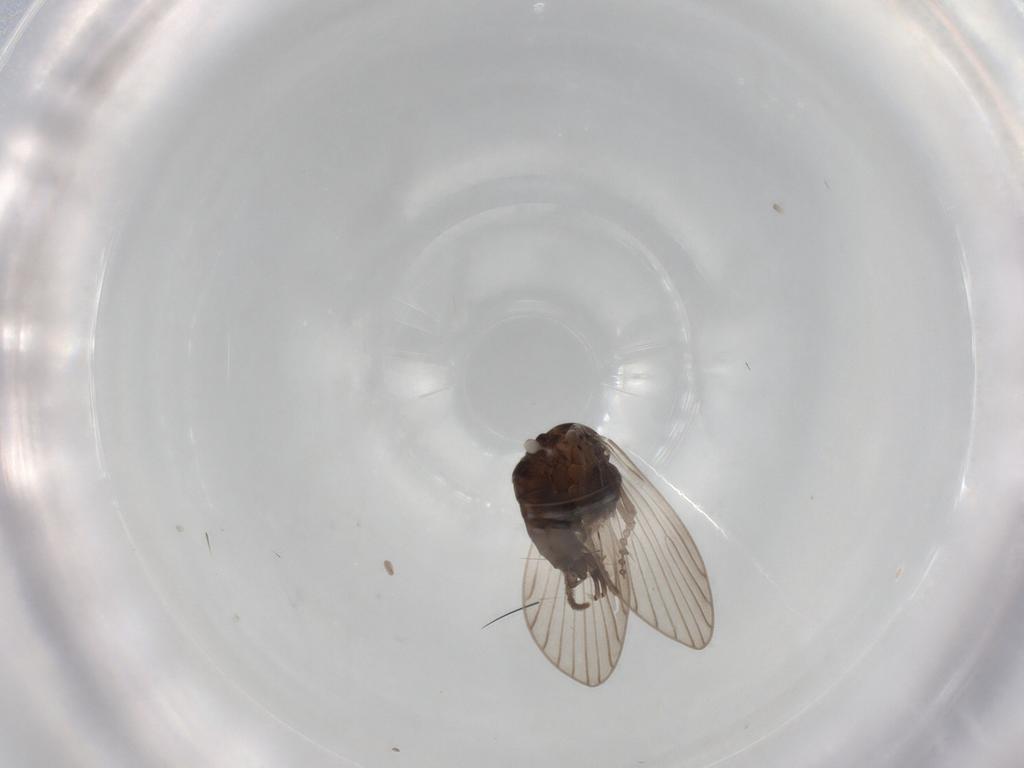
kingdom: Animalia
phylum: Arthropoda
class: Insecta
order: Diptera
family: Psychodidae
